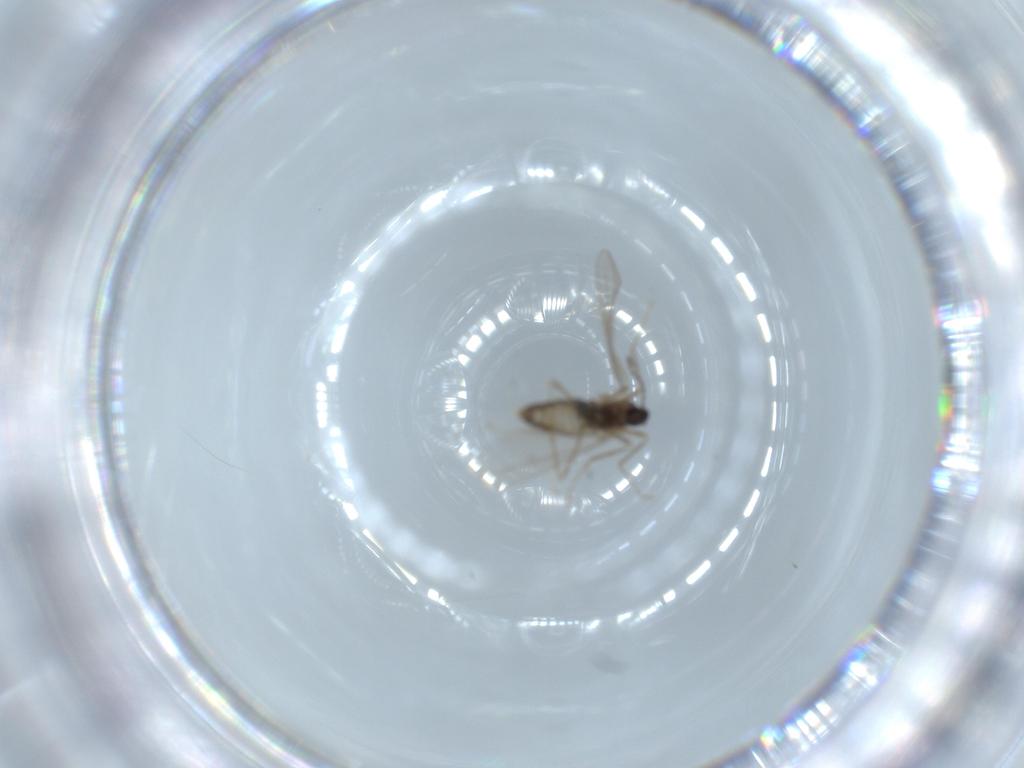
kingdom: Animalia
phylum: Arthropoda
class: Insecta
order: Diptera
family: Cecidomyiidae
